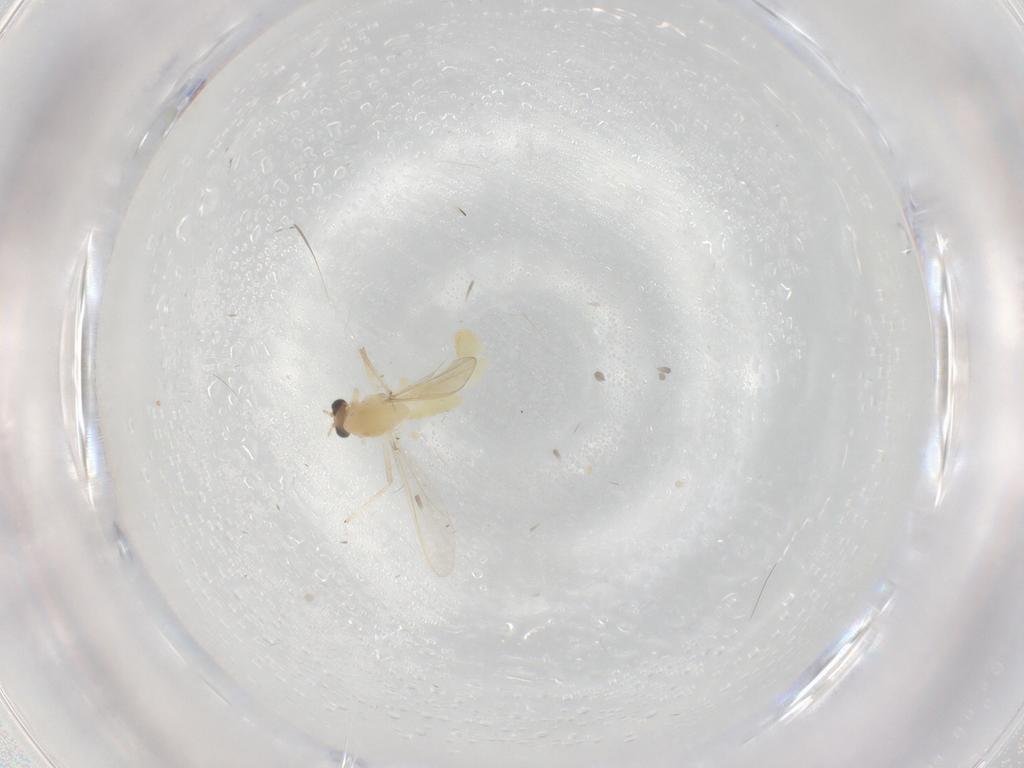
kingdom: Animalia
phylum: Arthropoda
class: Insecta
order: Diptera
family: Chironomidae
